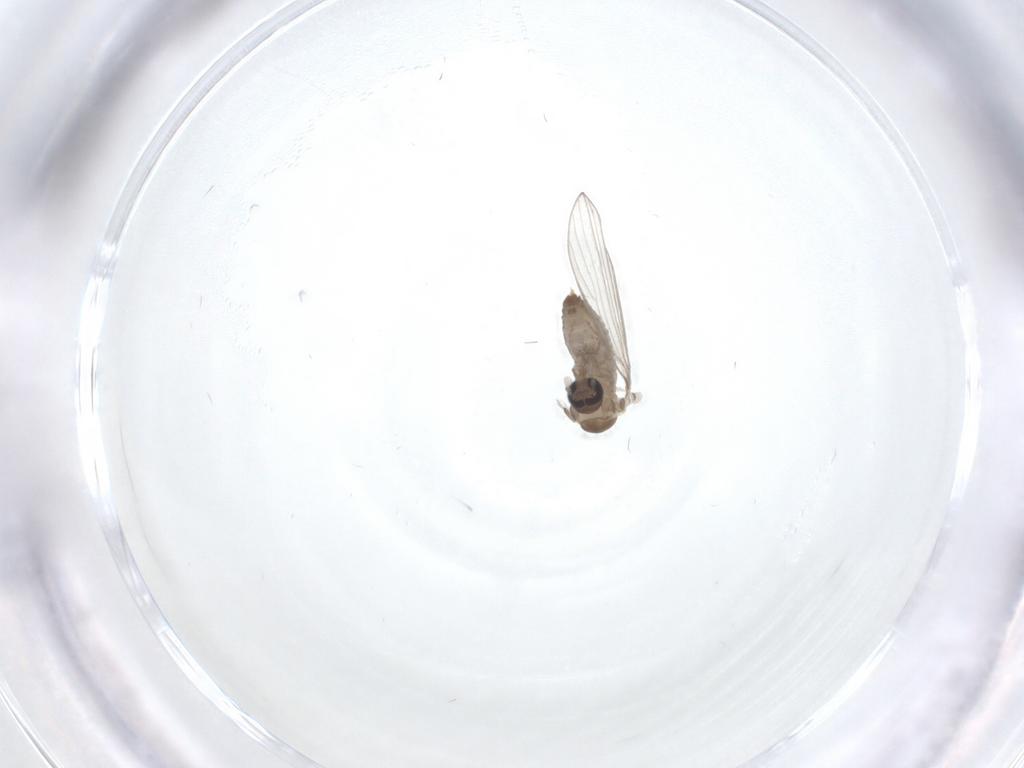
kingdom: Animalia
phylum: Arthropoda
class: Insecta
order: Diptera
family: Psychodidae
